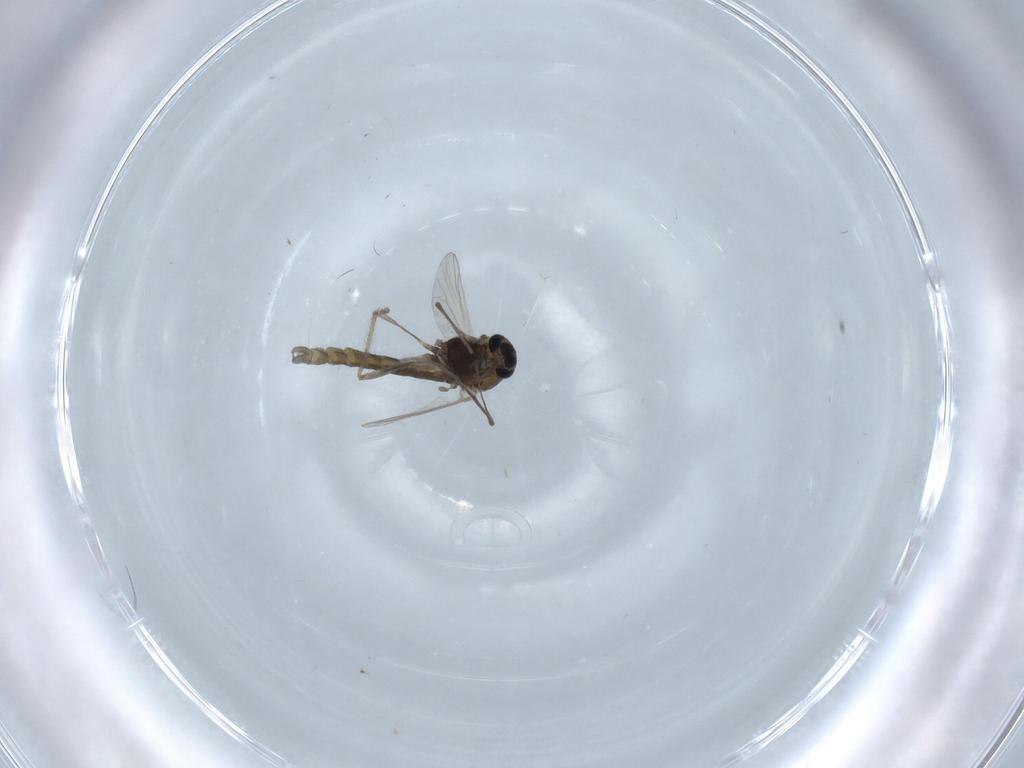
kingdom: Animalia
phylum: Arthropoda
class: Insecta
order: Diptera
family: Chironomidae
